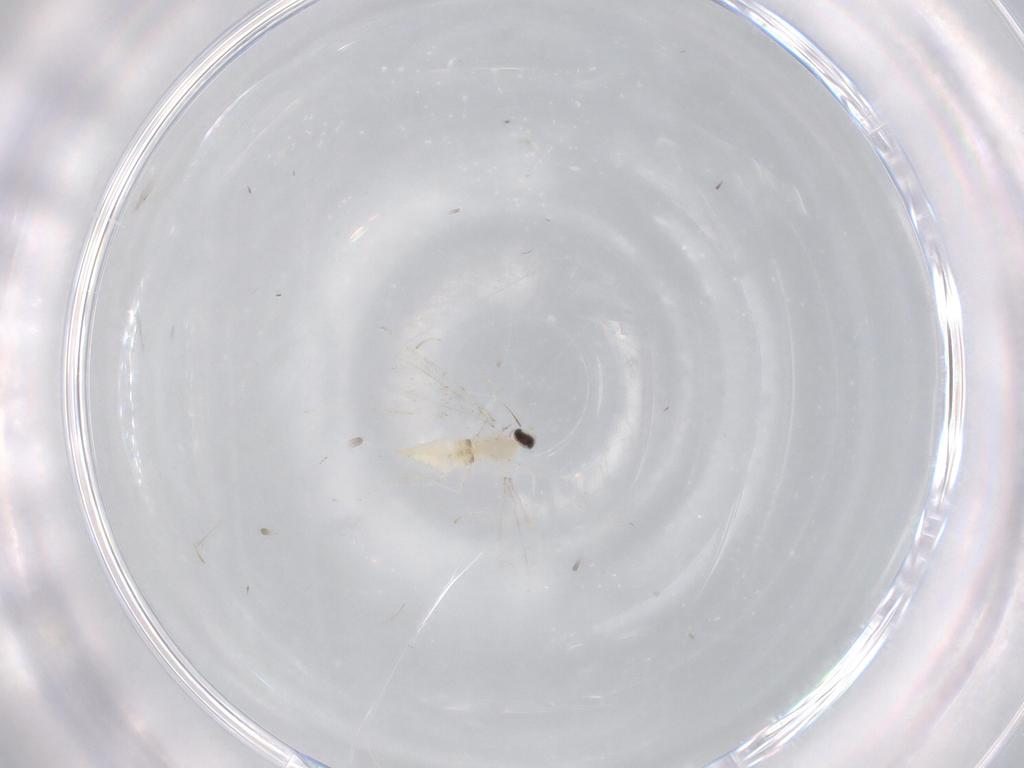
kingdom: Animalia
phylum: Arthropoda
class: Insecta
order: Diptera
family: Cecidomyiidae
